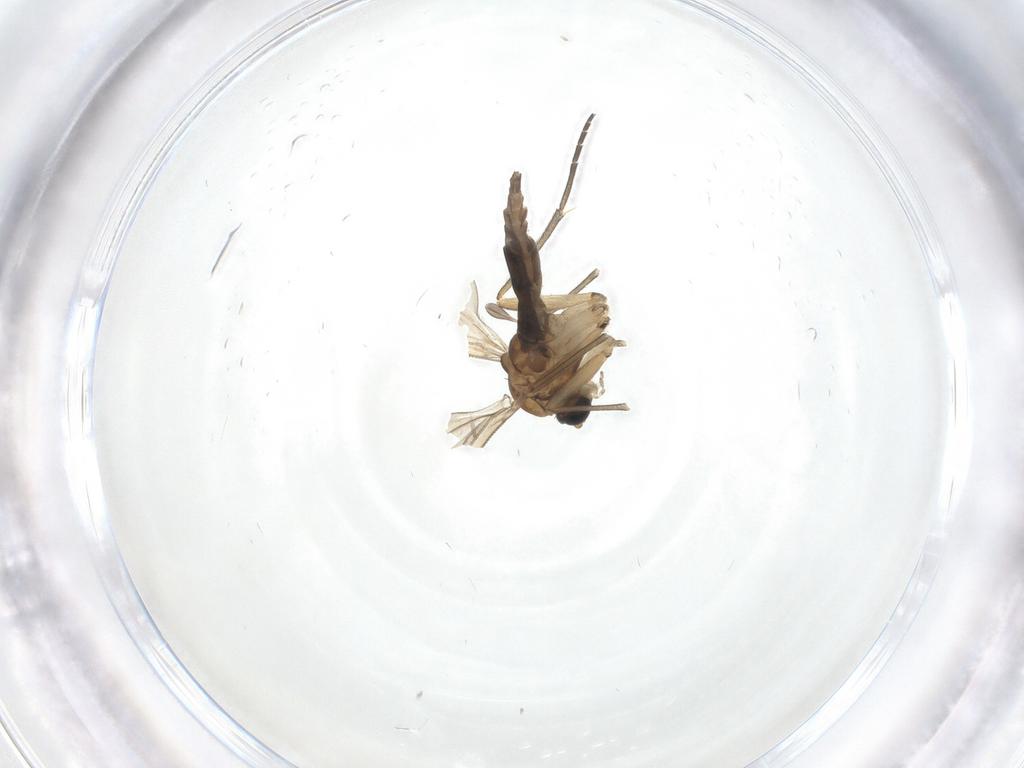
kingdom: Animalia
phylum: Arthropoda
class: Insecta
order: Diptera
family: Sciaridae
